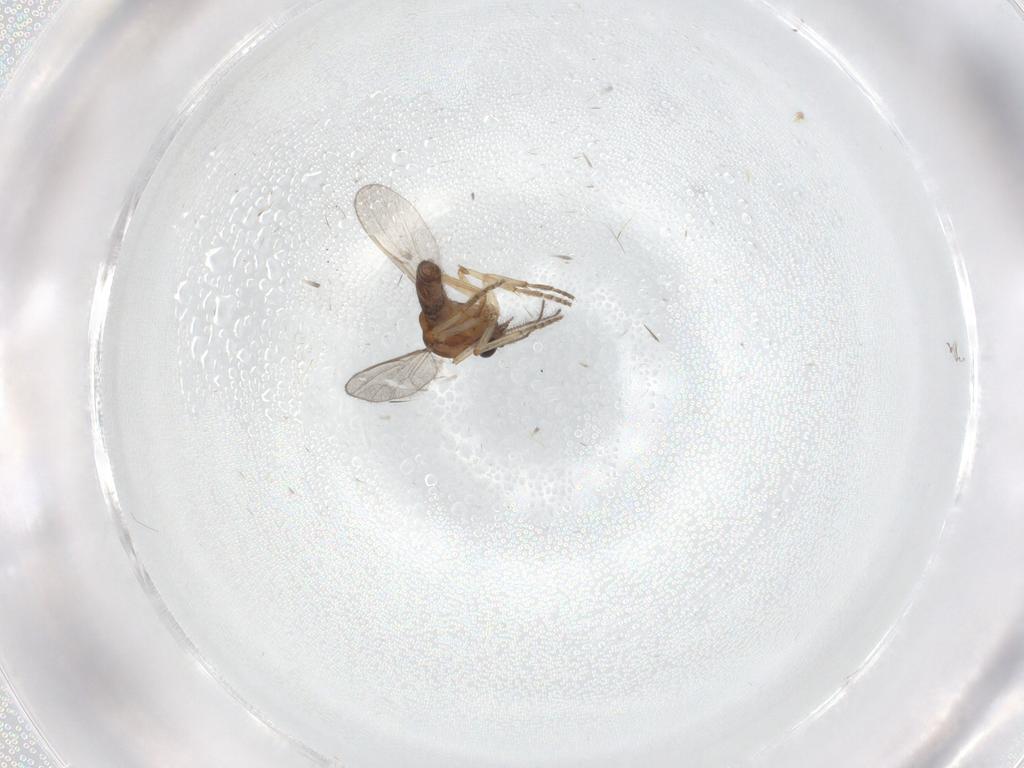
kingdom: Animalia
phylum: Arthropoda
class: Insecta
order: Diptera
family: Ceratopogonidae
